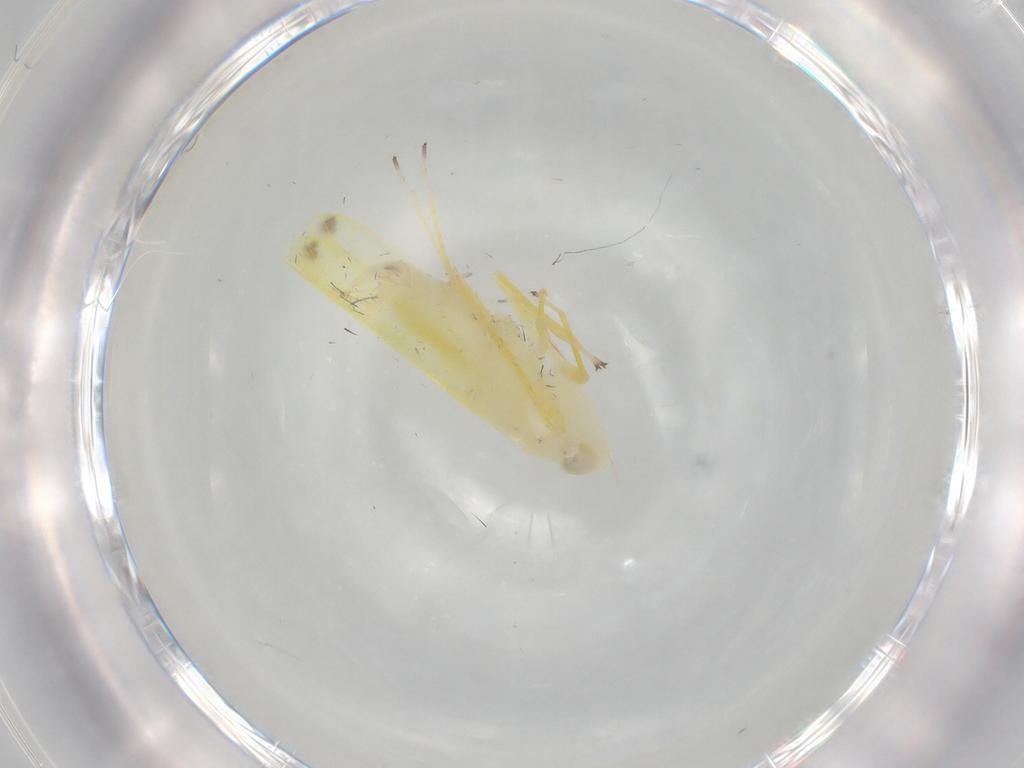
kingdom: Animalia
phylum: Arthropoda
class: Insecta
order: Hemiptera
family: Cicadellidae
